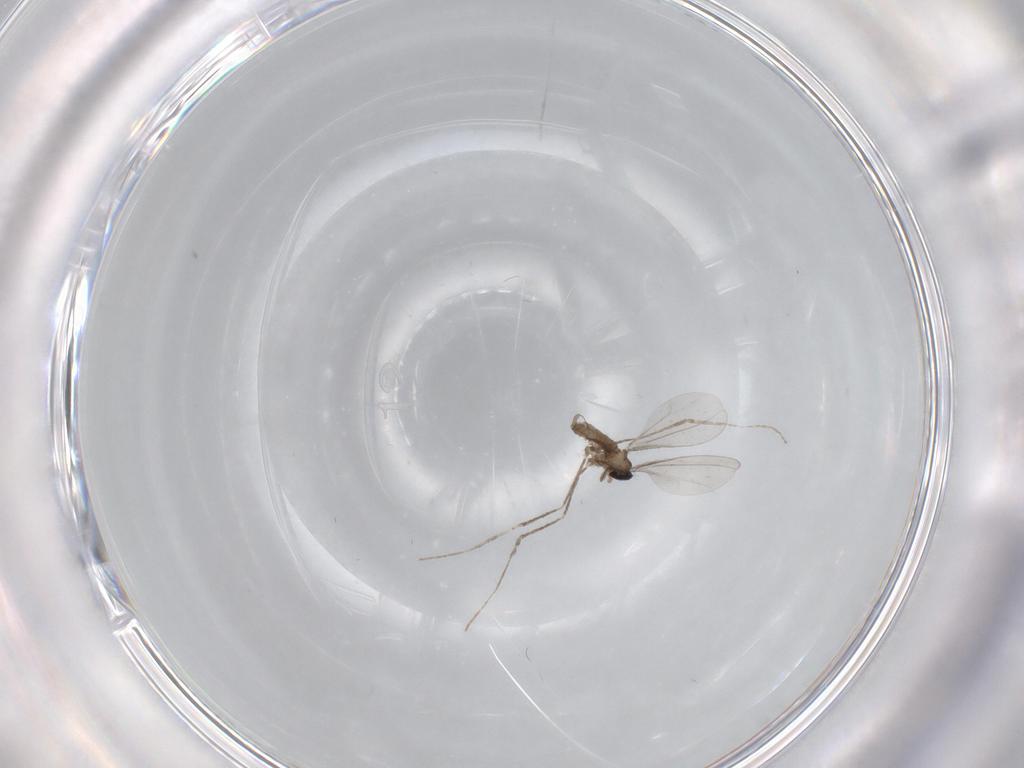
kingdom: Animalia
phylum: Arthropoda
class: Insecta
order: Diptera
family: Cecidomyiidae
